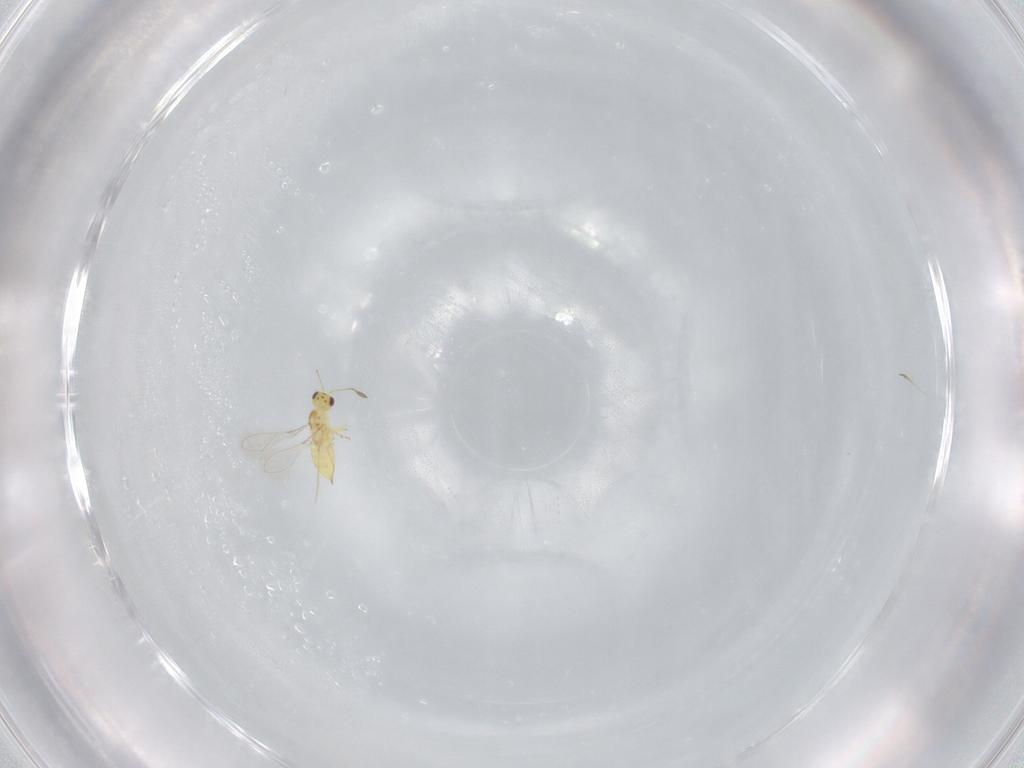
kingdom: Animalia
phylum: Arthropoda
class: Insecta
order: Hymenoptera
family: Mymaridae
